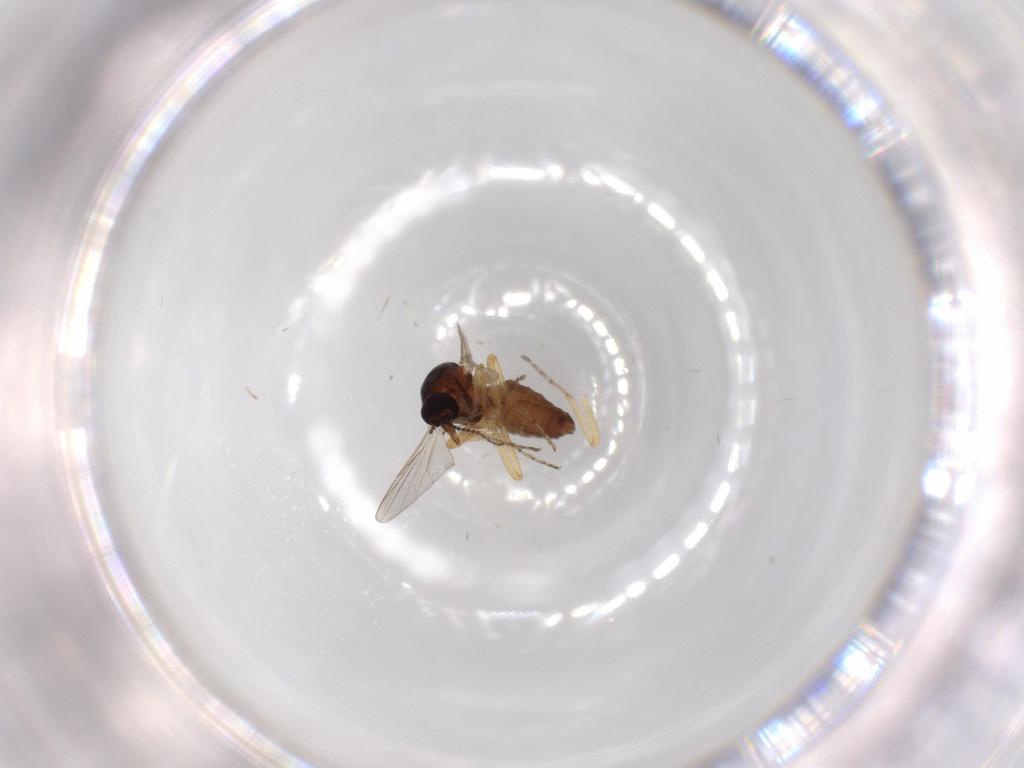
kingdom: Animalia
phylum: Arthropoda
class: Insecta
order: Diptera
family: Ceratopogonidae
